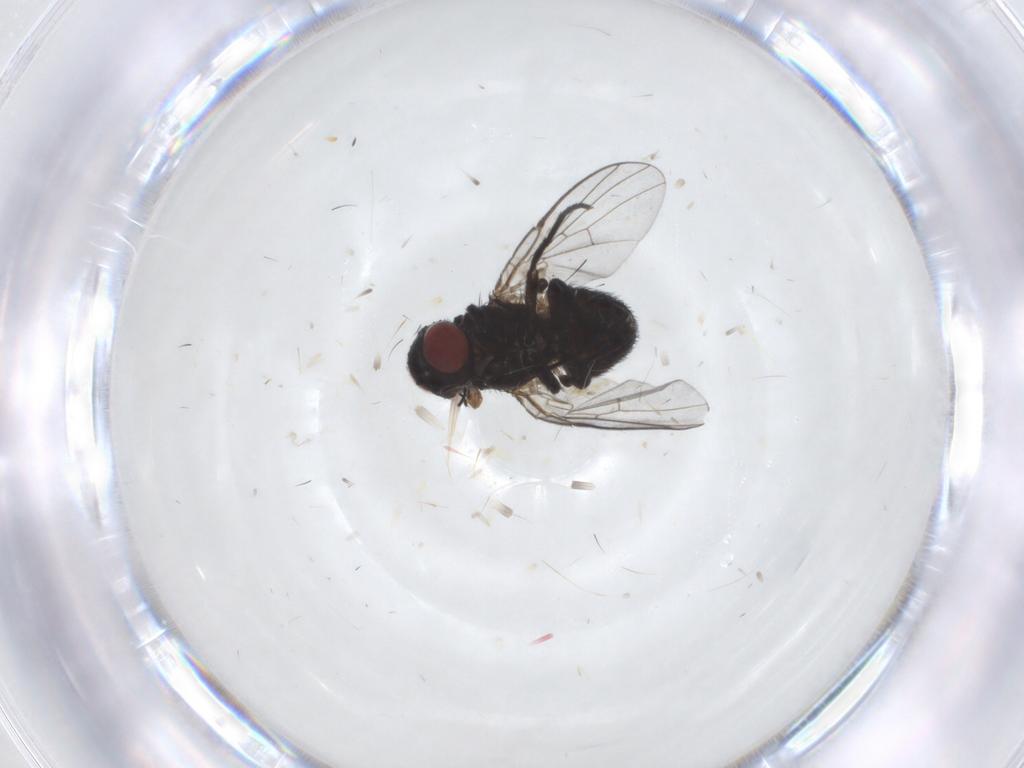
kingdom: Animalia
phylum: Arthropoda
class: Insecta
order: Diptera
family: Agromyzidae
